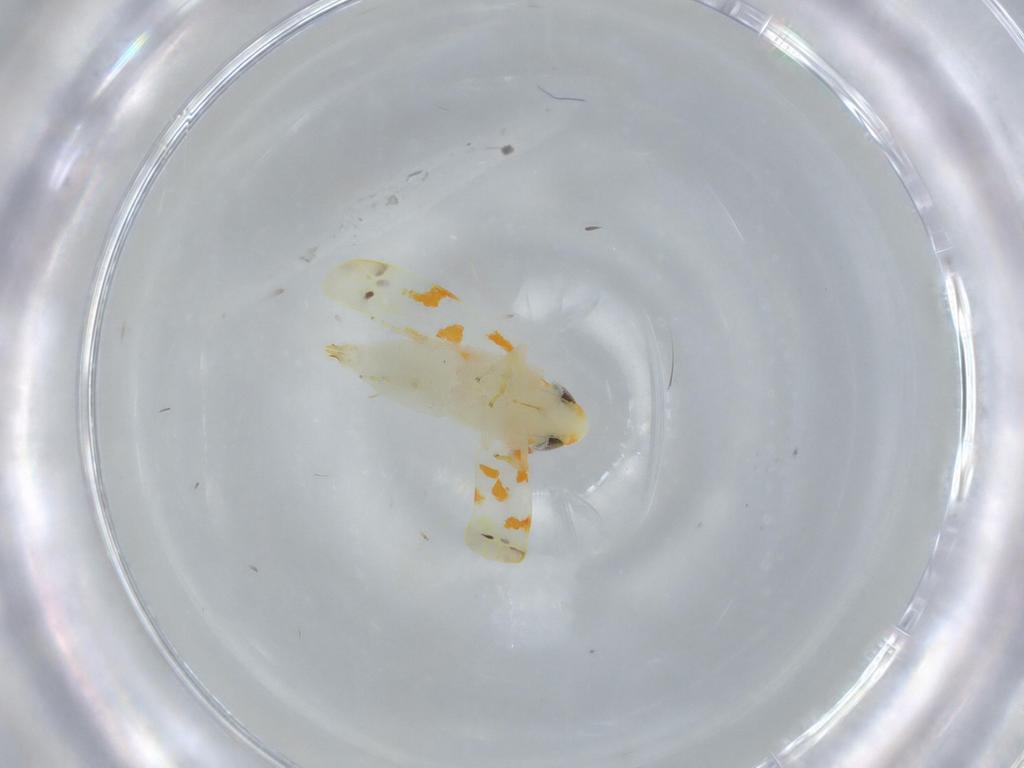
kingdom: Animalia
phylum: Arthropoda
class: Insecta
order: Hemiptera
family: Cicadellidae
